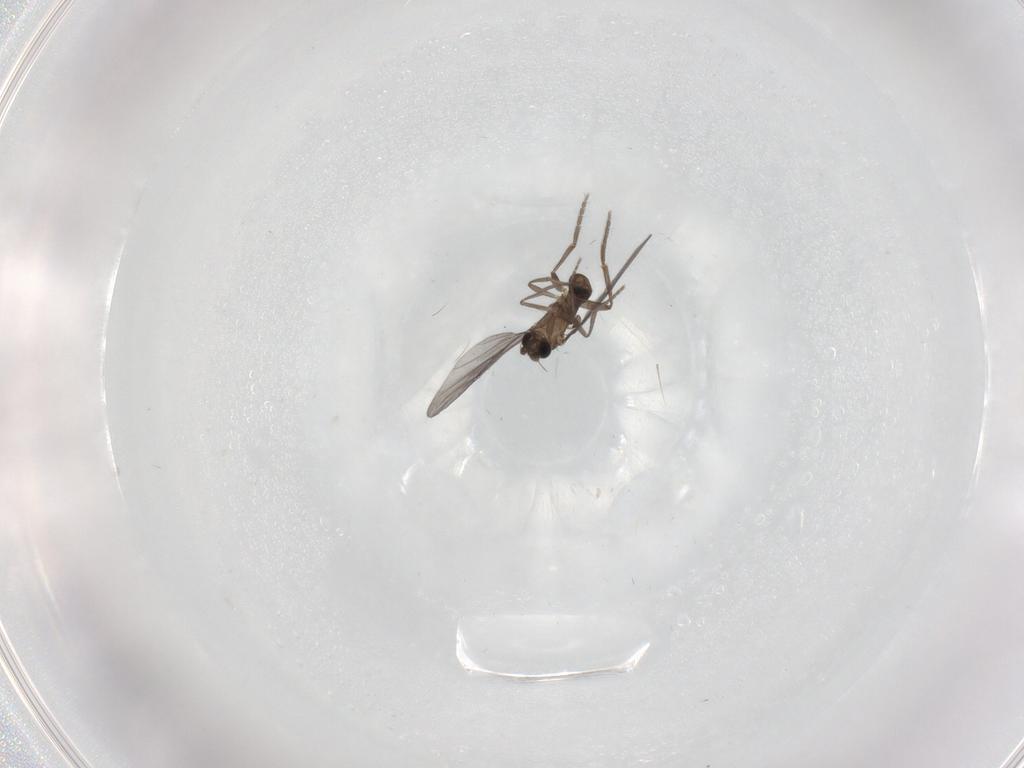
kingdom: Animalia
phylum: Arthropoda
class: Insecta
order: Diptera
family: Phoridae
